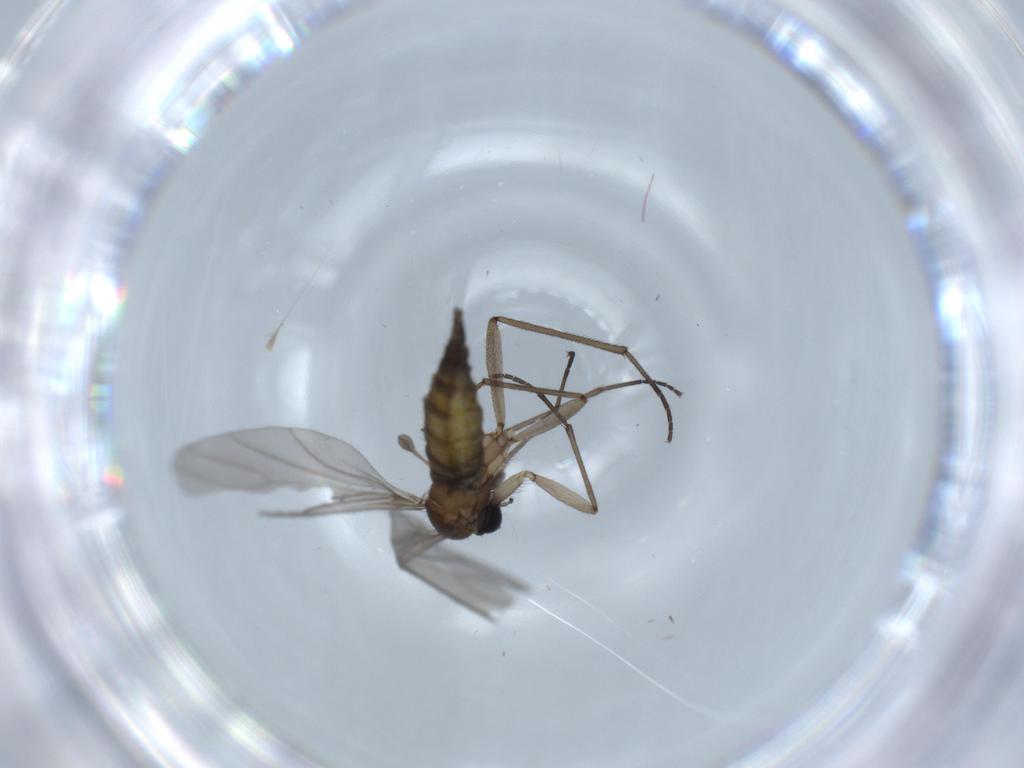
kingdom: Animalia
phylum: Arthropoda
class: Insecta
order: Diptera
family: Sciaridae
